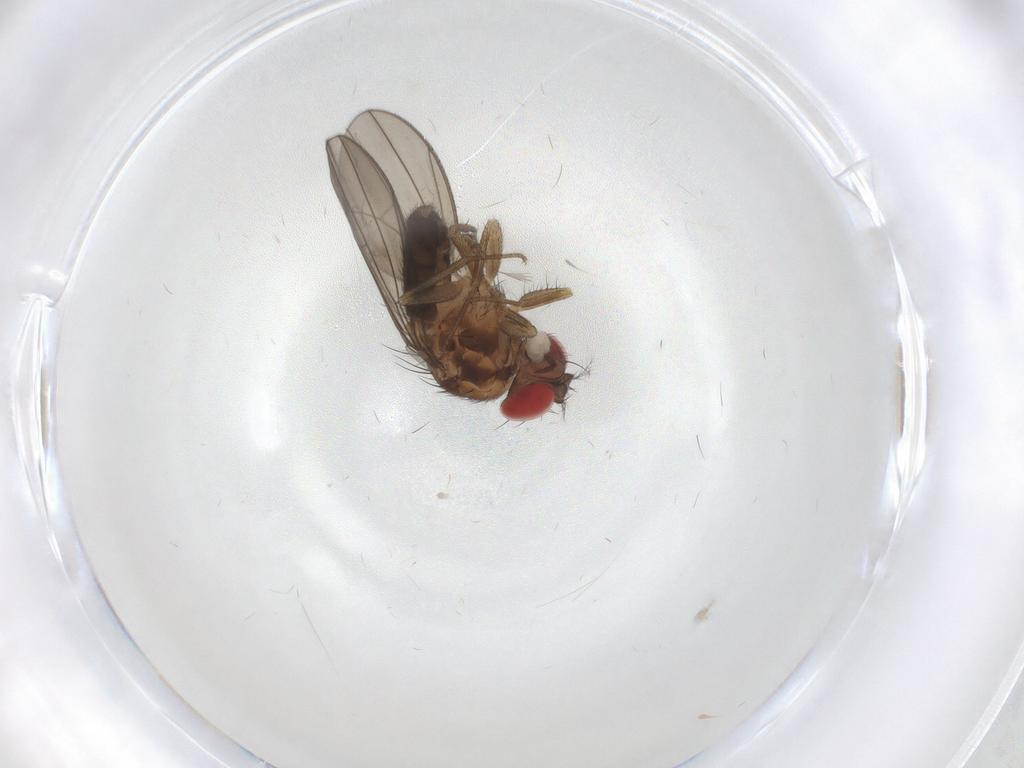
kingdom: Animalia
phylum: Arthropoda
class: Insecta
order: Diptera
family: Drosophilidae
